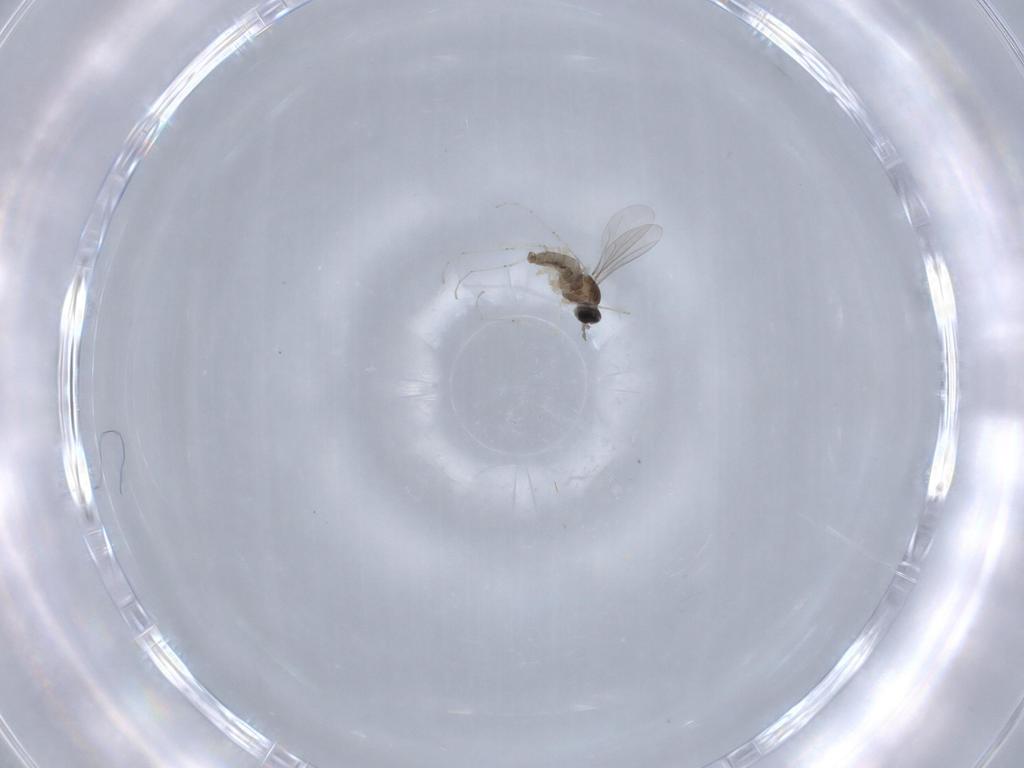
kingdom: Animalia
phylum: Arthropoda
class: Insecta
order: Diptera
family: Cecidomyiidae
